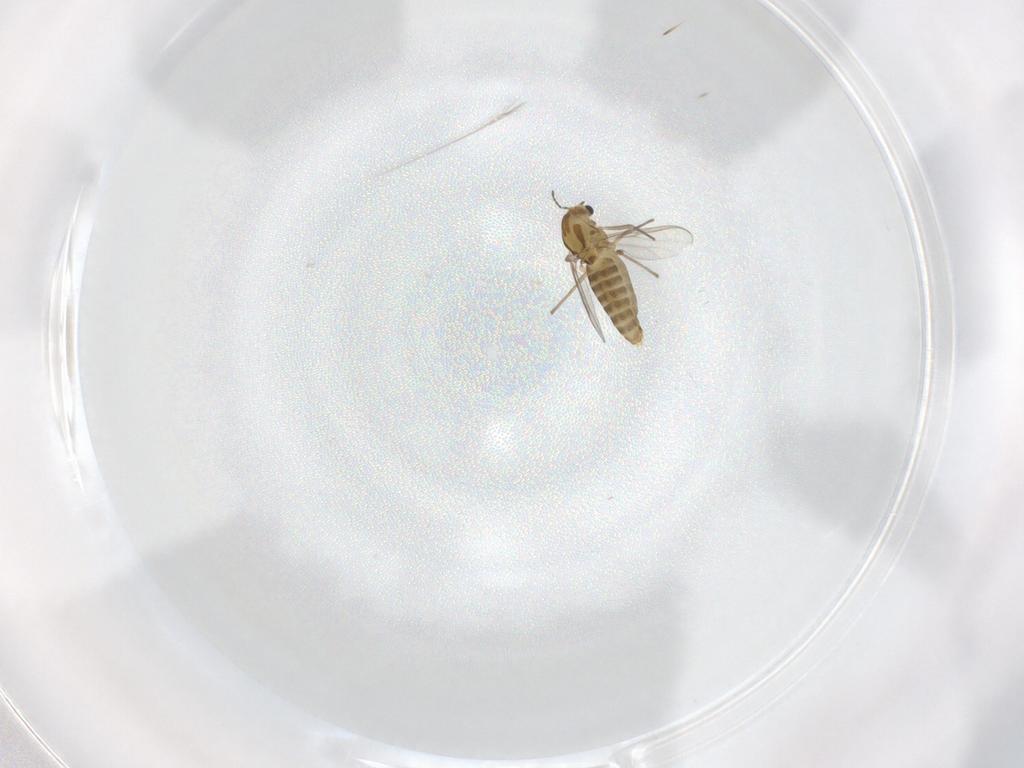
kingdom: Animalia
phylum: Arthropoda
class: Insecta
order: Diptera
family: Chironomidae
